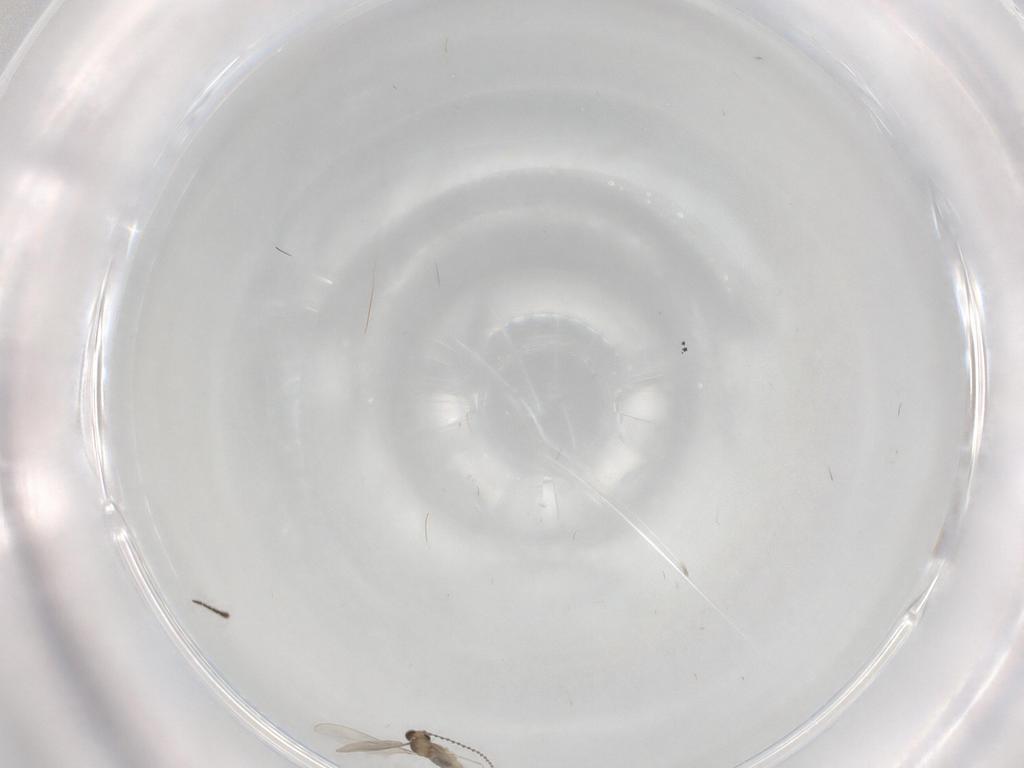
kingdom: Animalia
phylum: Arthropoda
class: Insecta
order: Diptera
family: Cecidomyiidae
